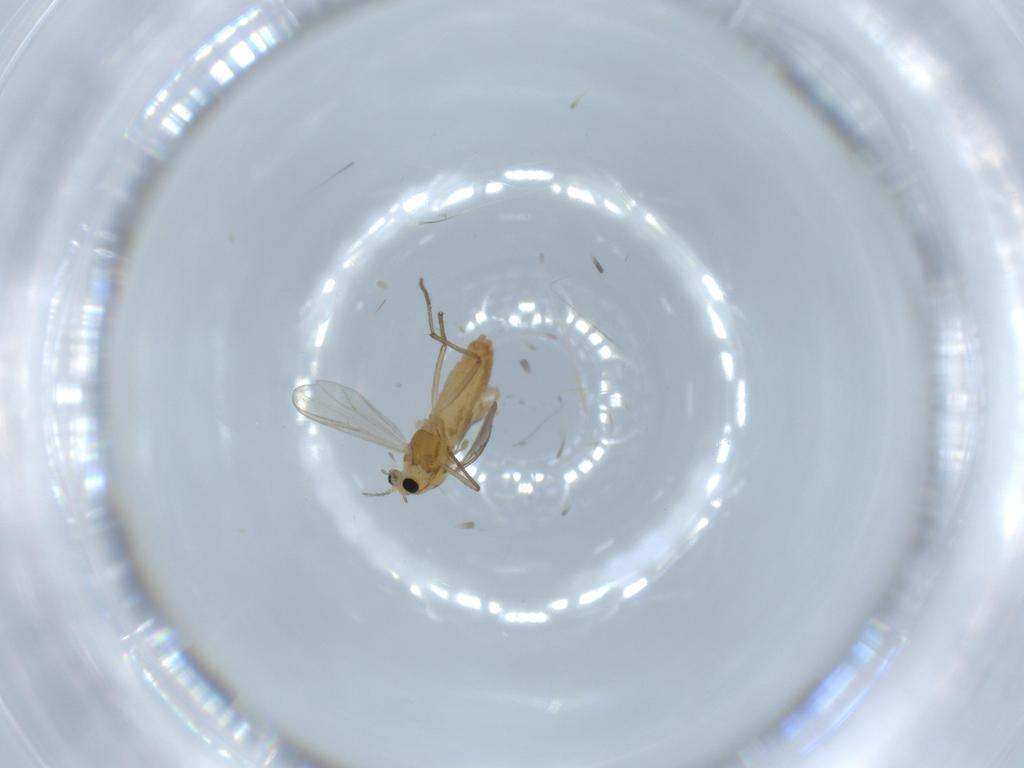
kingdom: Animalia
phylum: Arthropoda
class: Insecta
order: Diptera
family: Chironomidae
